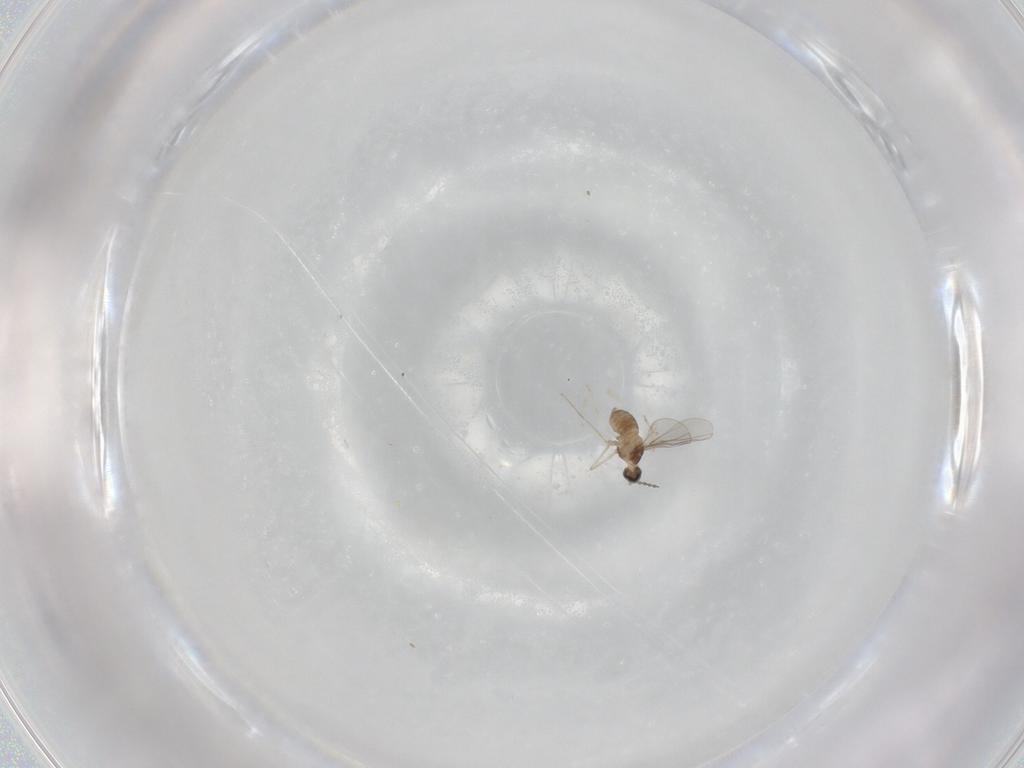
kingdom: Animalia
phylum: Arthropoda
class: Insecta
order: Diptera
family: Cecidomyiidae
